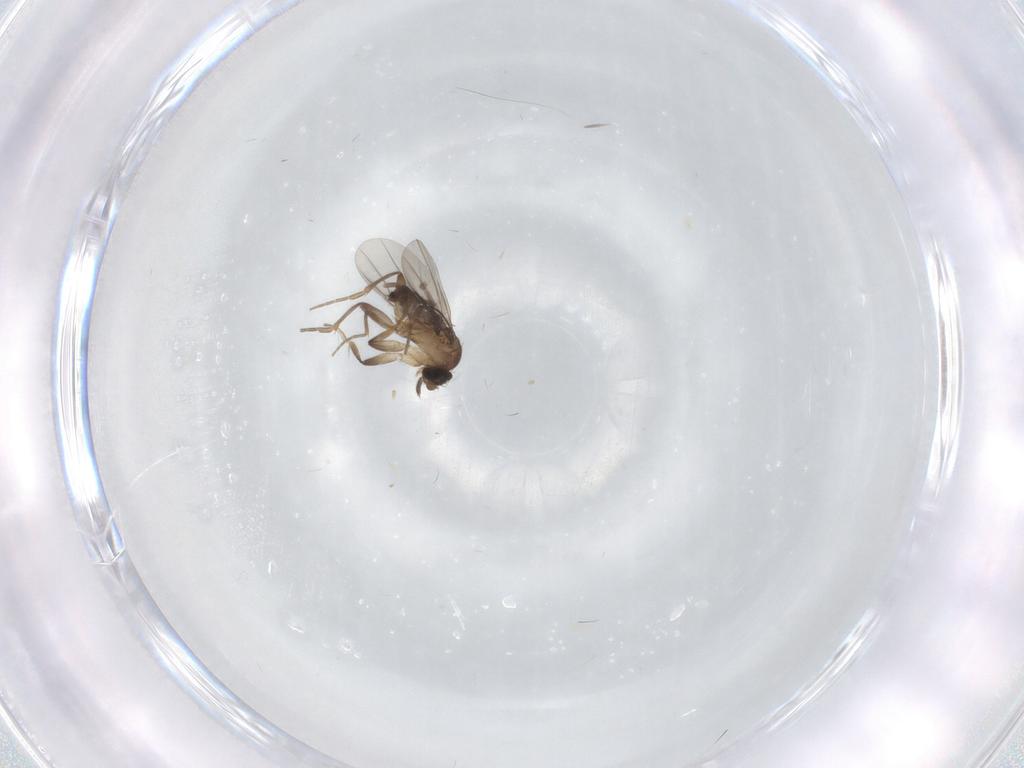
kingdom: Animalia
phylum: Arthropoda
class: Insecta
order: Diptera
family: Phoridae
